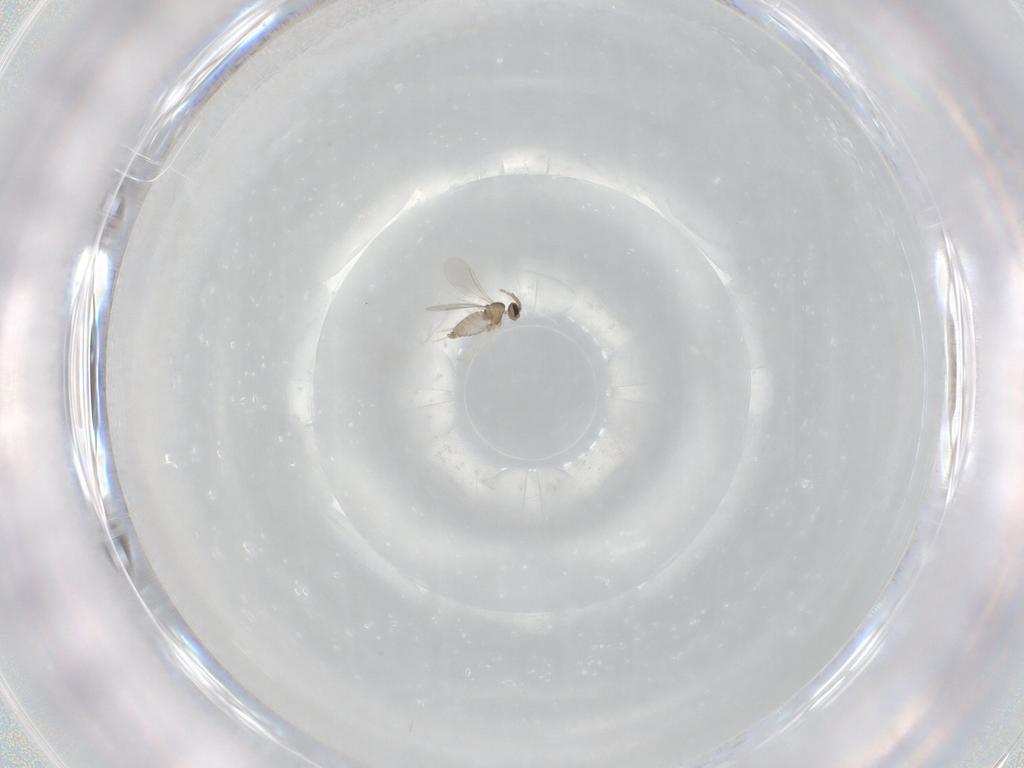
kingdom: Animalia
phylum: Arthropoda
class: Insecta
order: Diptera
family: Cecidomyiidae
